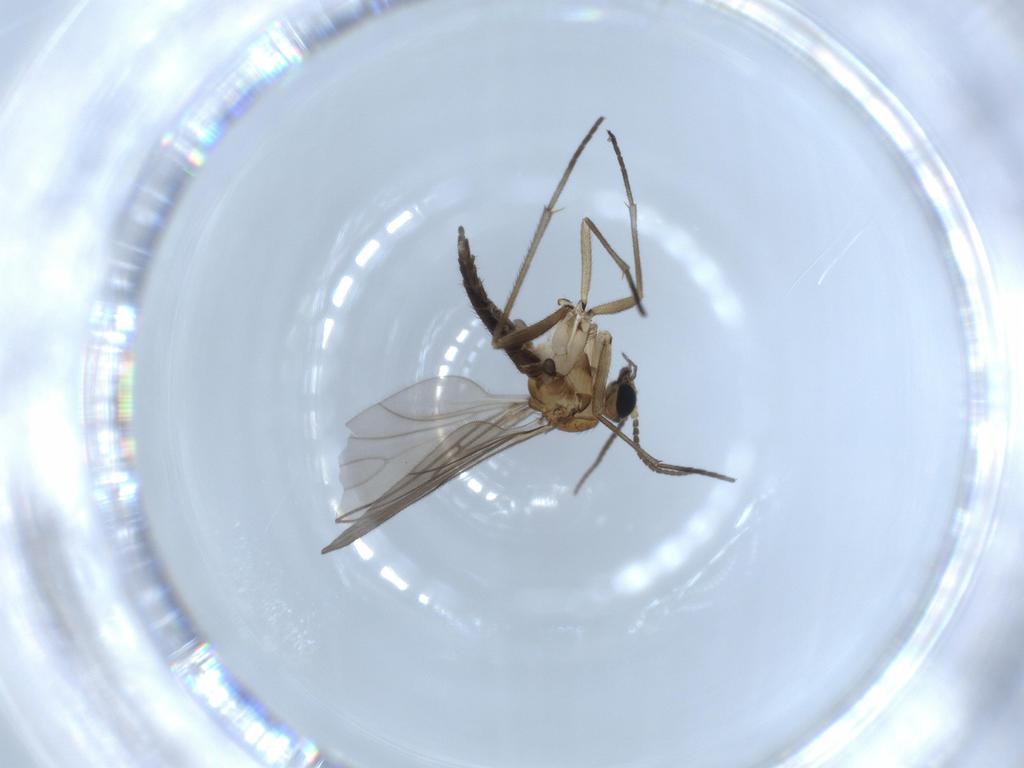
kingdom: Animalia
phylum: Arthropoda
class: Insecta
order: Diptera
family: Sciaridae
